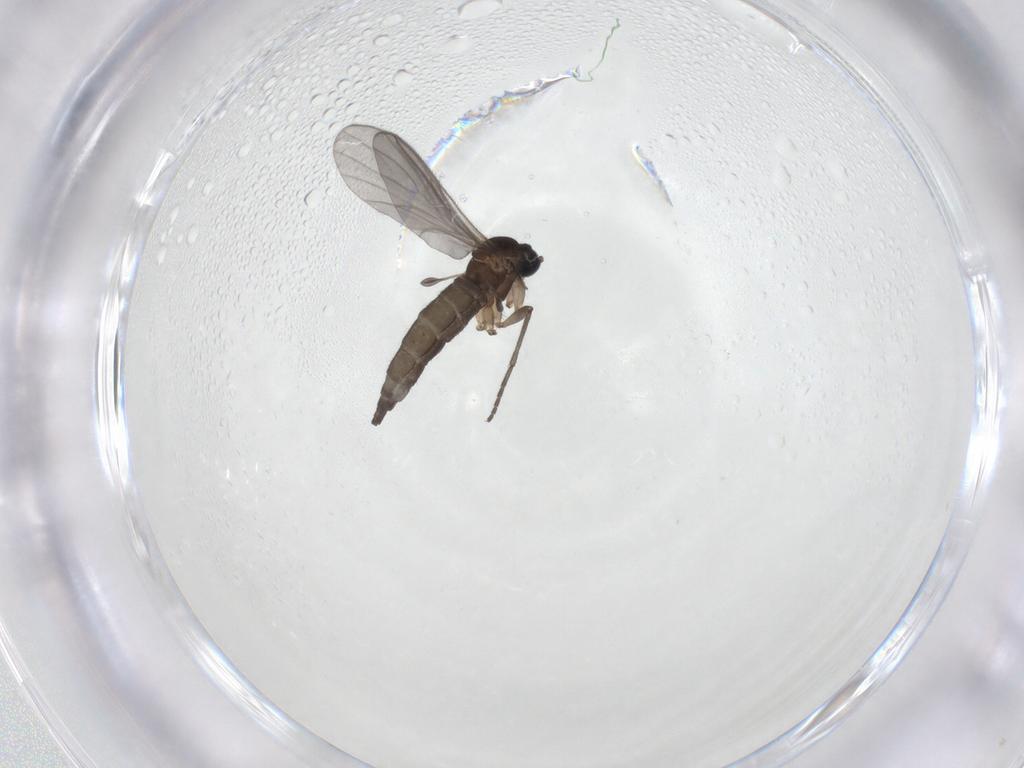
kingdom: Animalia
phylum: Arthropoda
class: Insecta
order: Diptera
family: Sciaridae
